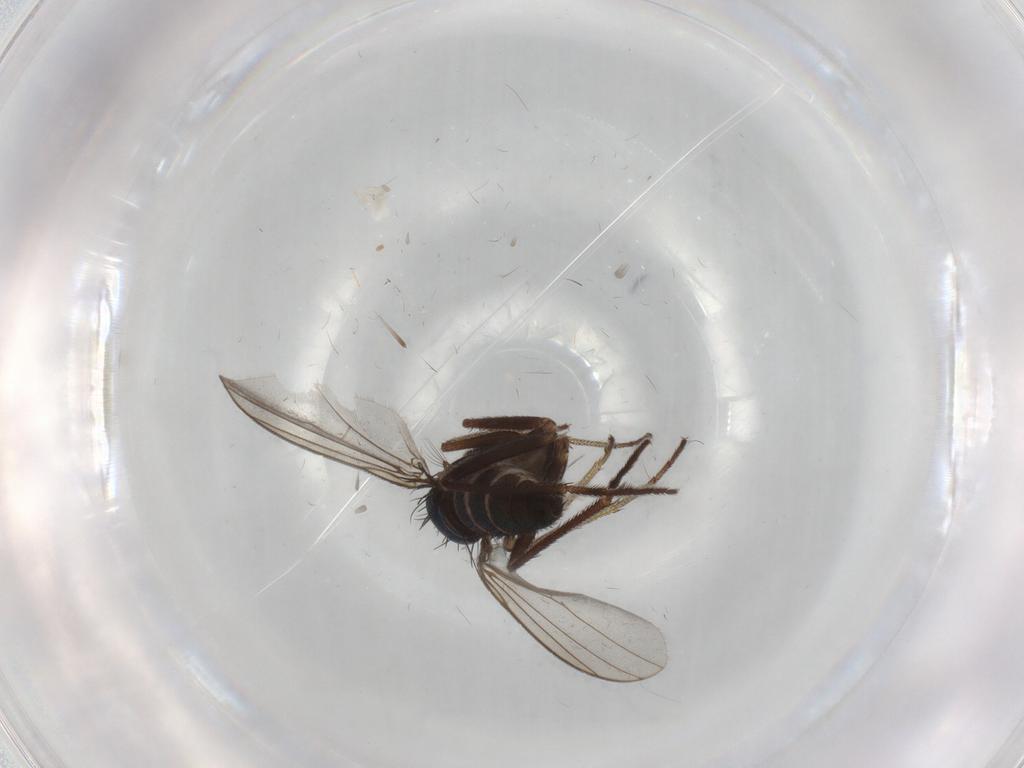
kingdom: Animalia
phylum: Arthropoda
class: Insecta
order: Diptera
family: Dolichopodidae
